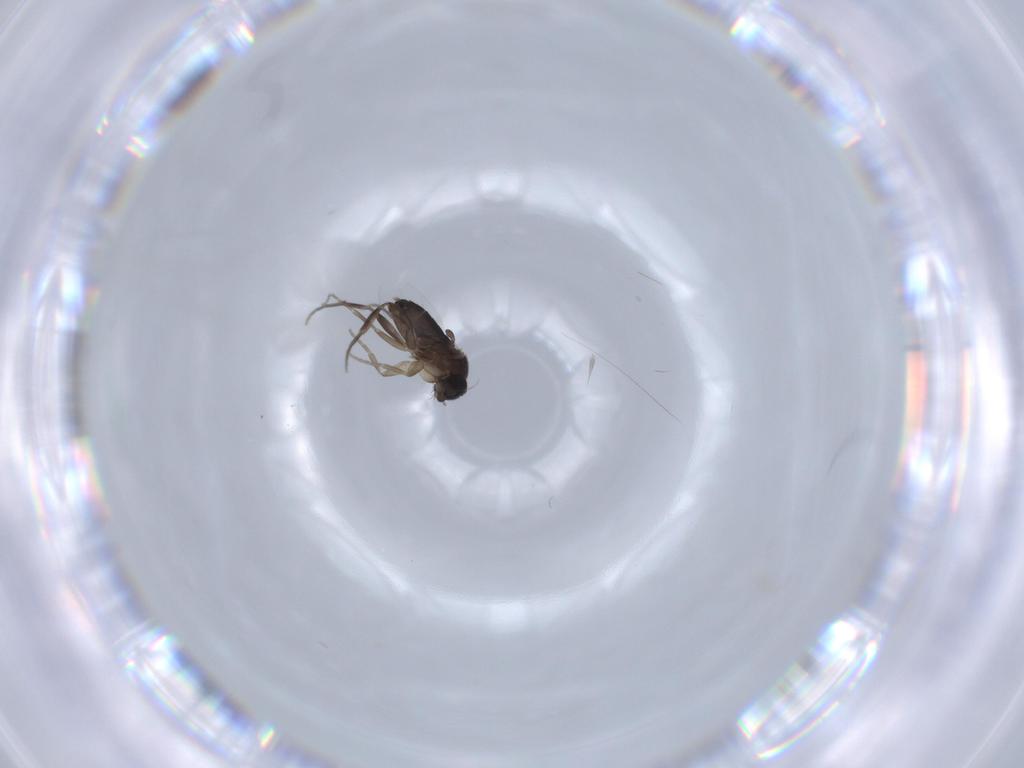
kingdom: Animalia
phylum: Arthropoda
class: Insecta
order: Diptera
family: Phoridae
